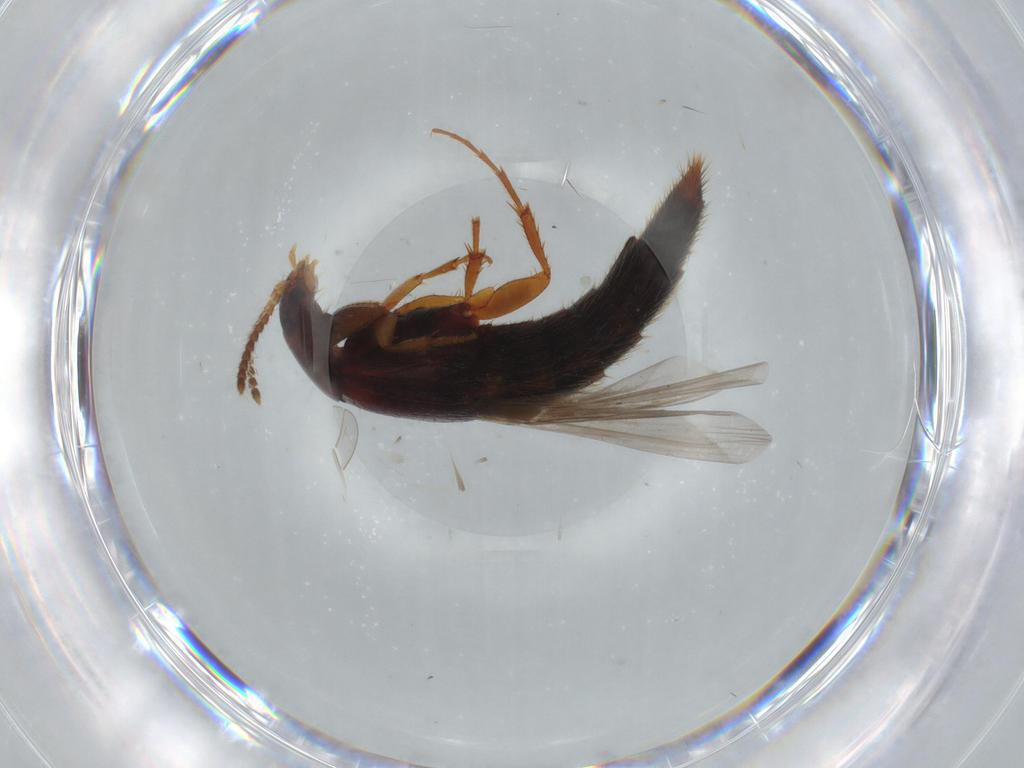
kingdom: Animalia
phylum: Arthropoda
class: Insecta
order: Coleoptera
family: Staphylinidae
